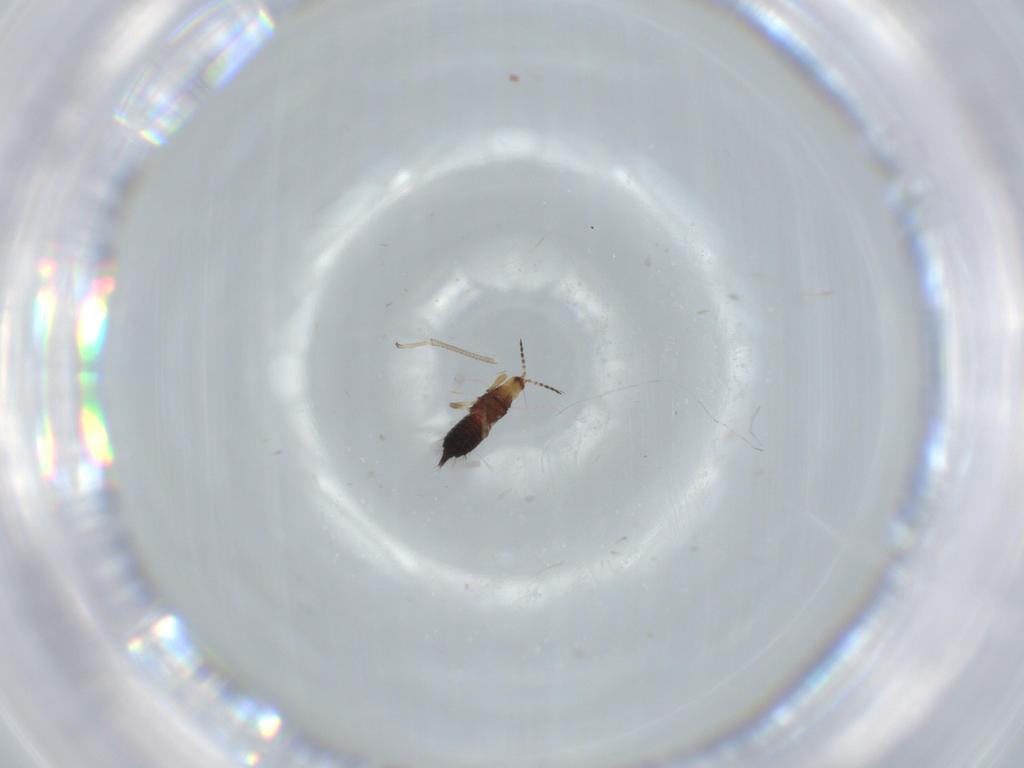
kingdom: Animalia
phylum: Arthropoda
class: Insecta
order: Thysanoptera
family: Phlaeothripidae
